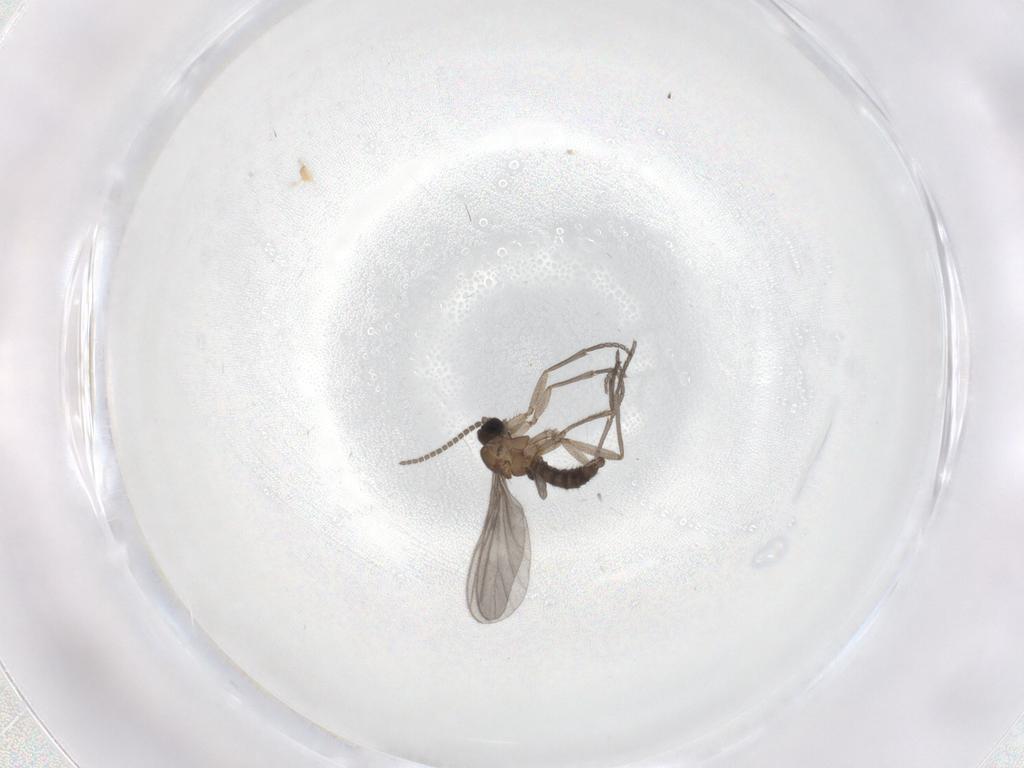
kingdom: Animalia
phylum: Arthropoda
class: Insecta
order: Diptera
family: Sciaridae
